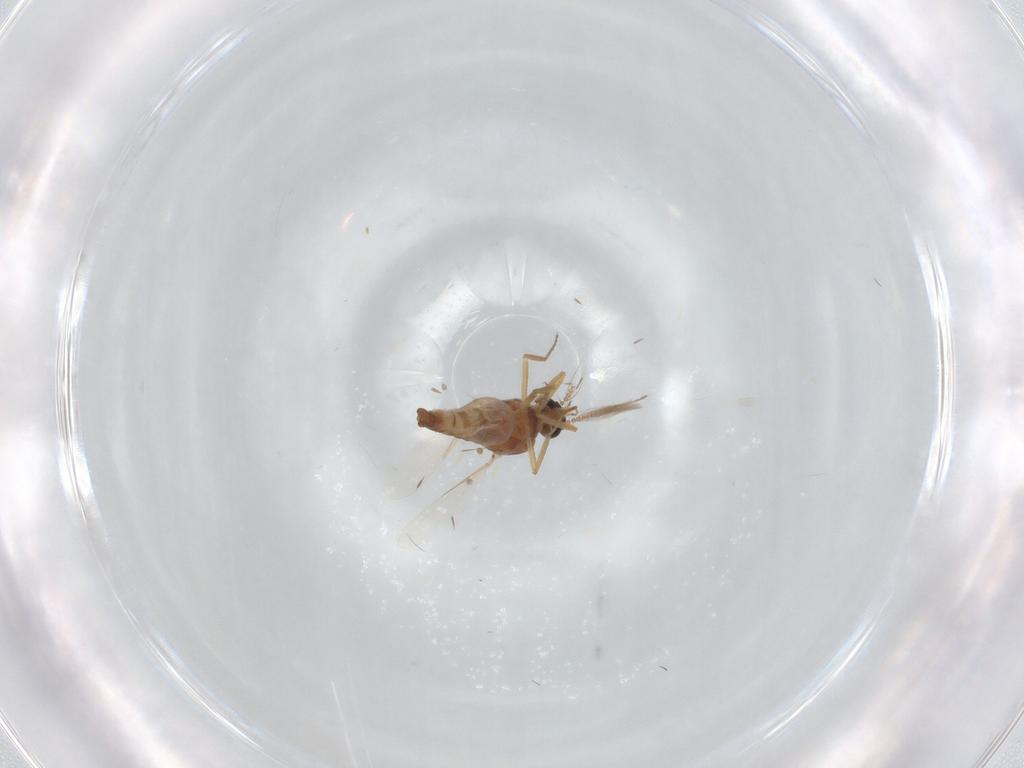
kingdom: Animalia
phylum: Arthropoda
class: Insecta
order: Diptera
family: Ceratopogonidae
